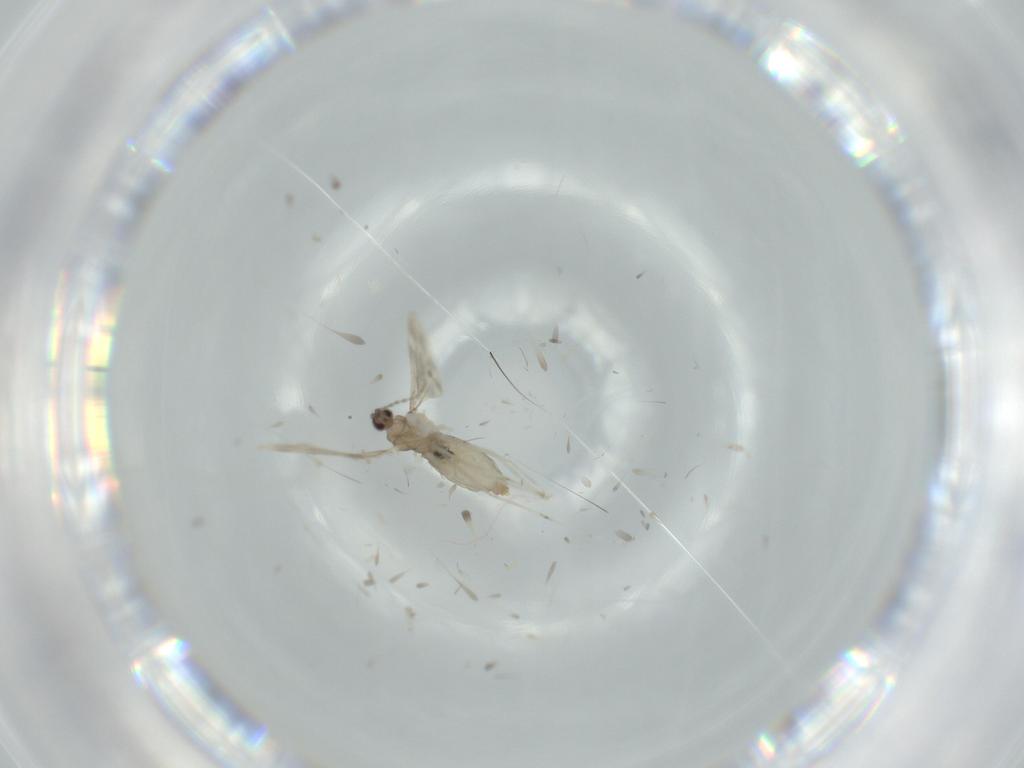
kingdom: Animalia
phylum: Arthropoda
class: Insecta
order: Diptera
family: Cecidomyiidae
